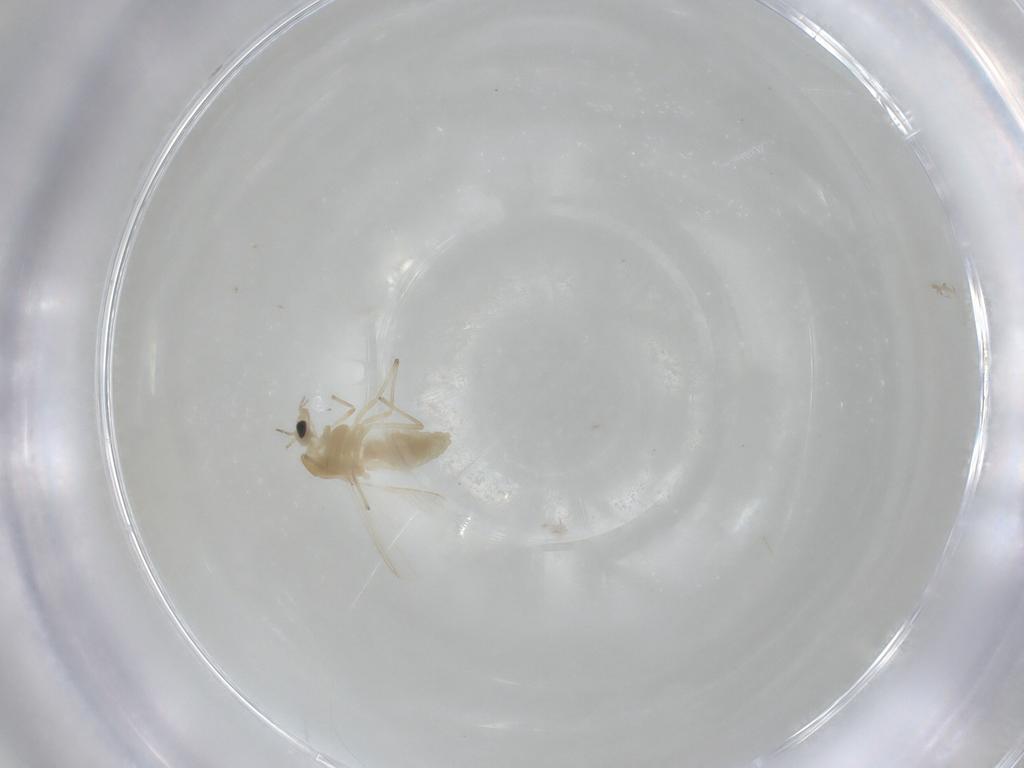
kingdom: Animalia
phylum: Arthropoda
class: Insecta
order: Diptera
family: Chironomidae
